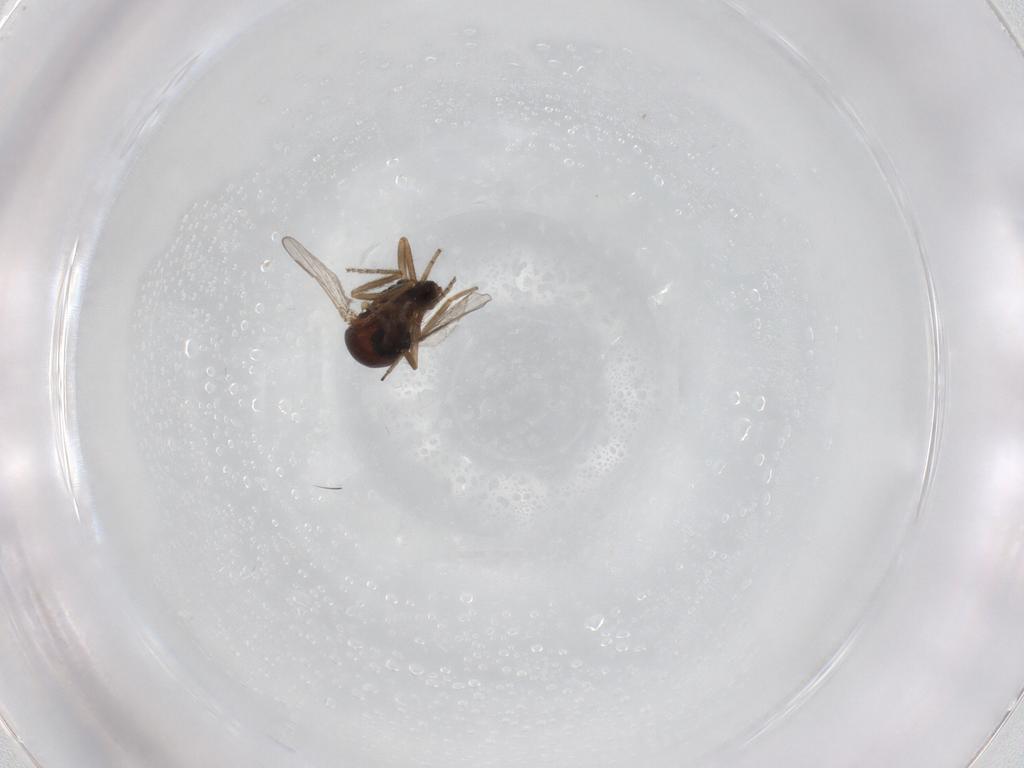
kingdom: Animalia
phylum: Arthropoda
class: Insecta
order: Diptera
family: Ceratopogonidae
